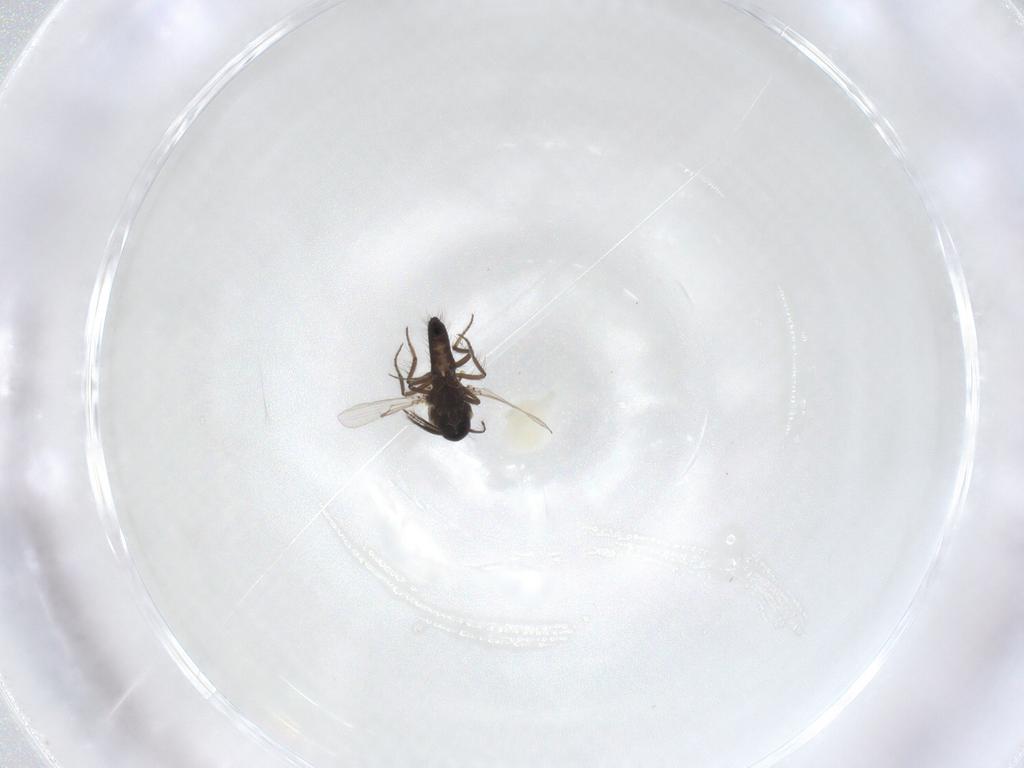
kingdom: Animalia
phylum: Arthropoda
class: Insecta
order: Diptera
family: Ceratopogonidae
